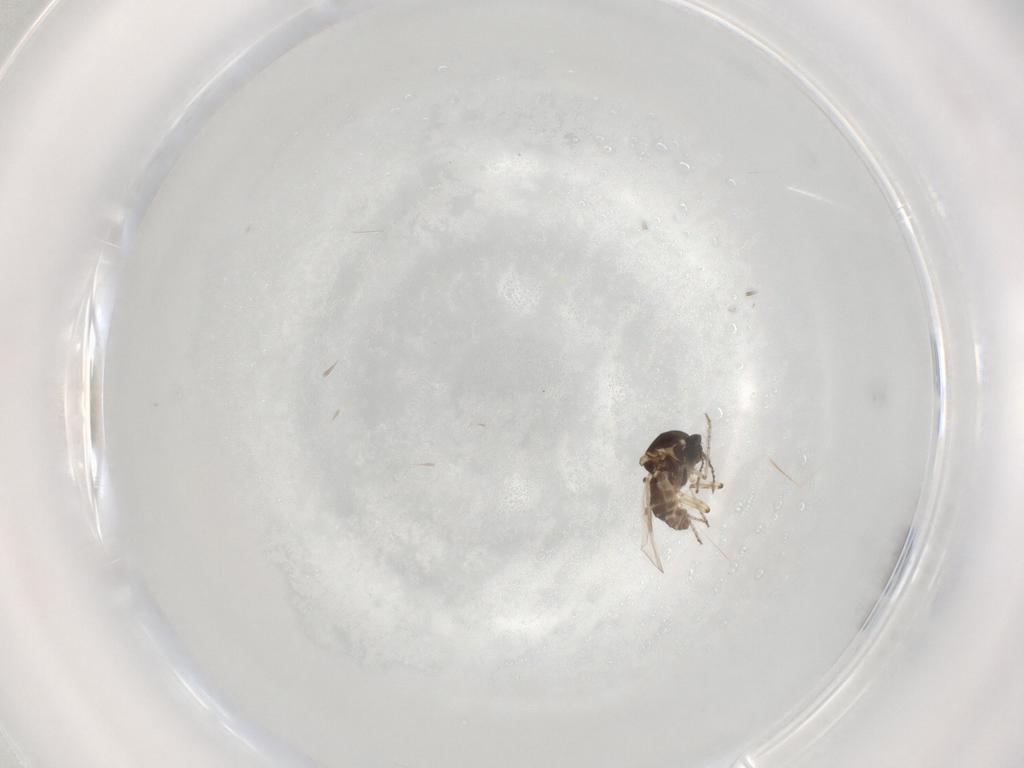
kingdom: Animalia
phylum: Arthropoda
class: Insecta
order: Diptera
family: Ceratopogonidae
